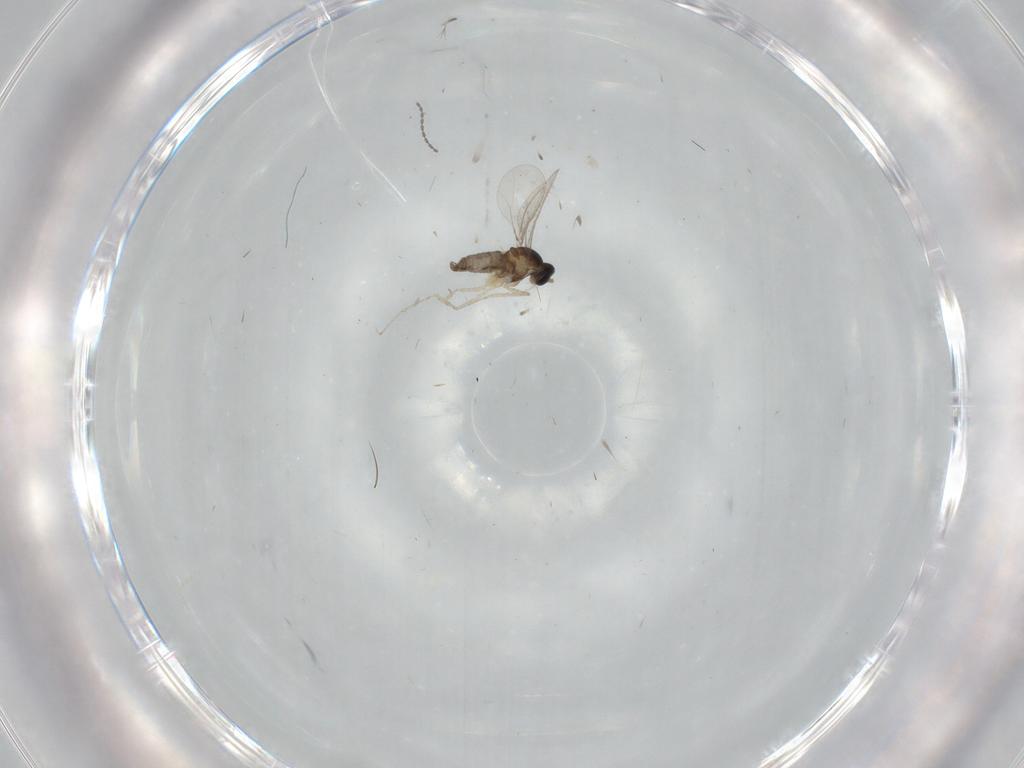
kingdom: Animalia
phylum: Arthropoda
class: Insecta
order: Diptera
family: Cecidomyiidae
